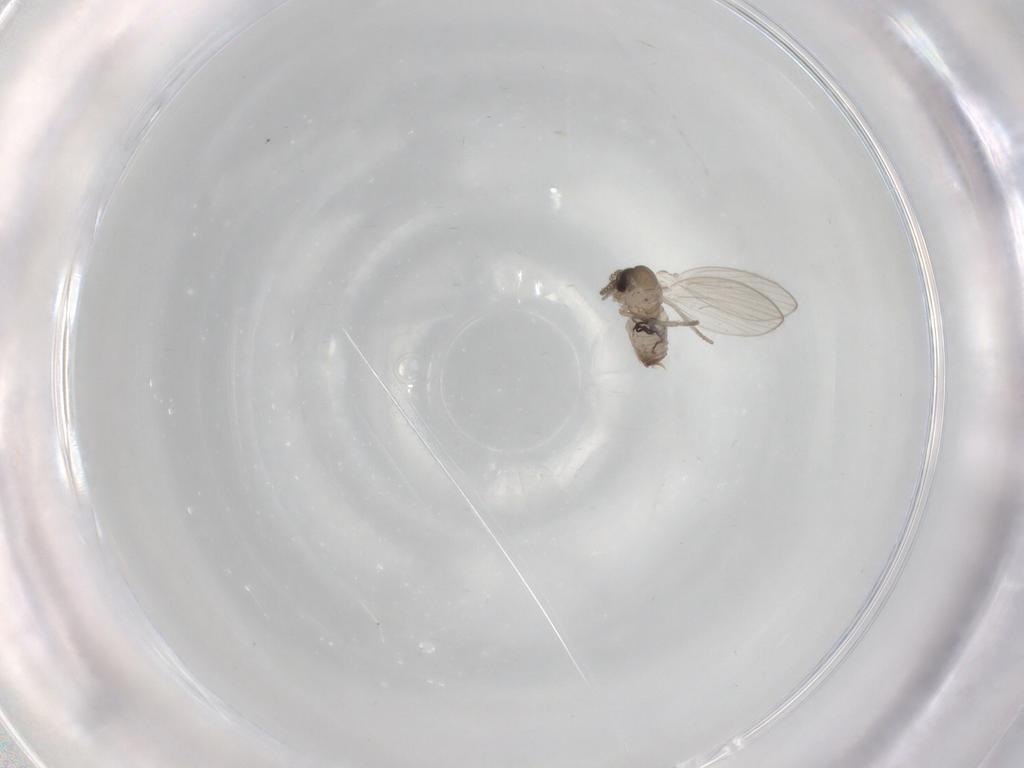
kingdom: Animalia
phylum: Arthropoda
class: Insecta
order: Diptera
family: Psychodidae
